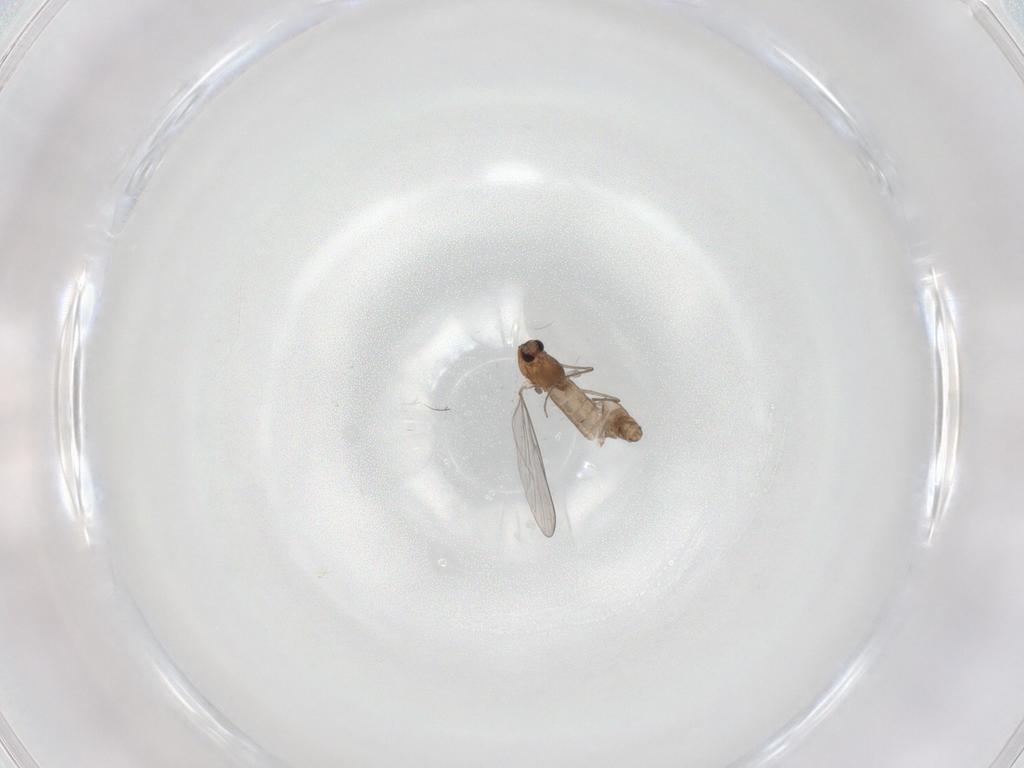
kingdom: Animalia
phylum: Arthropoda
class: Insecta
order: Diptera
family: Chironomidae
